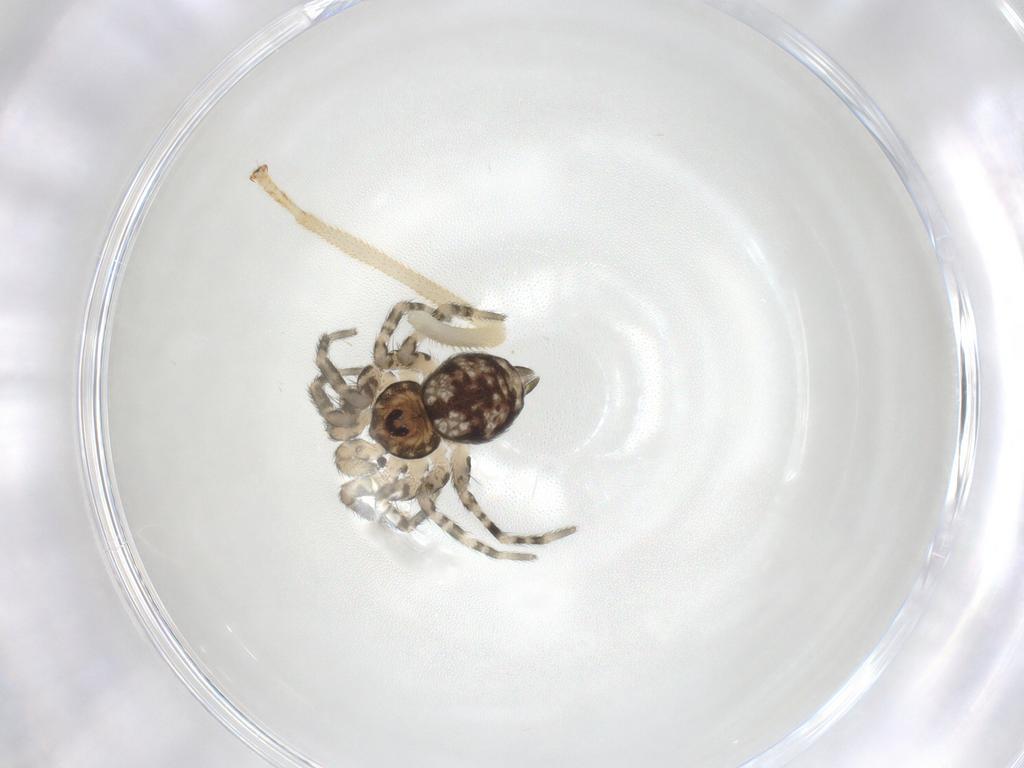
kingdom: Animalia
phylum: Arthropoda
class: Arachnida
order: Araneae
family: Oecobiidae
